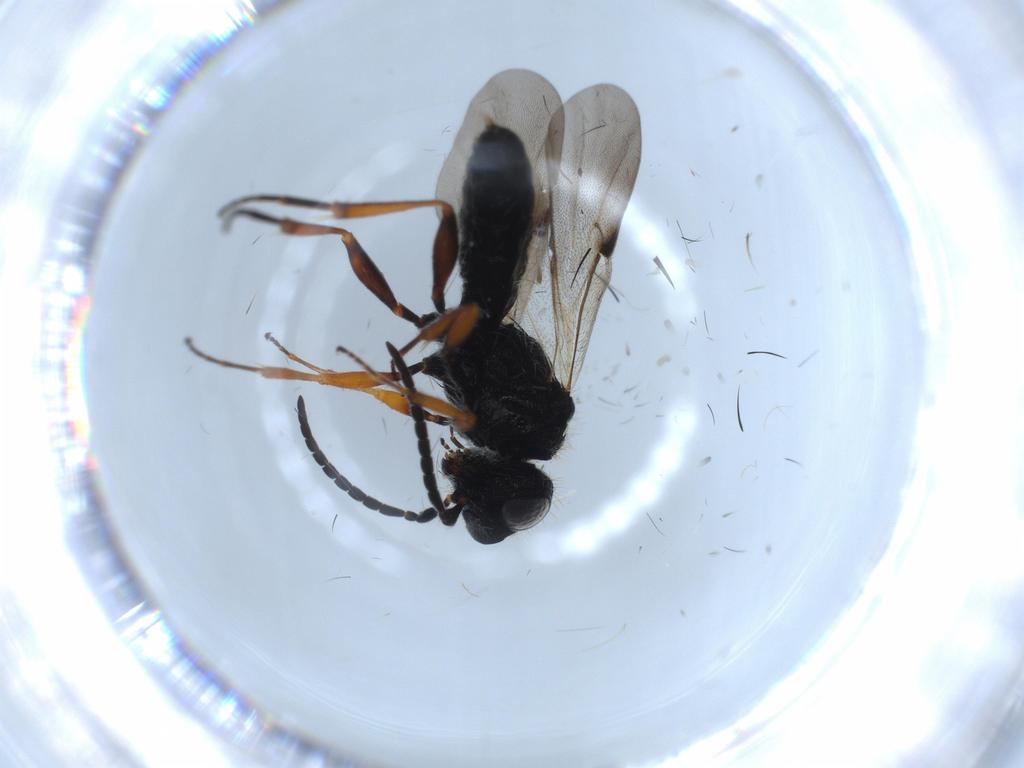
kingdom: Animalia
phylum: Arthropoda
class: Insecta
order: Hymenoptera
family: Scelionidae
